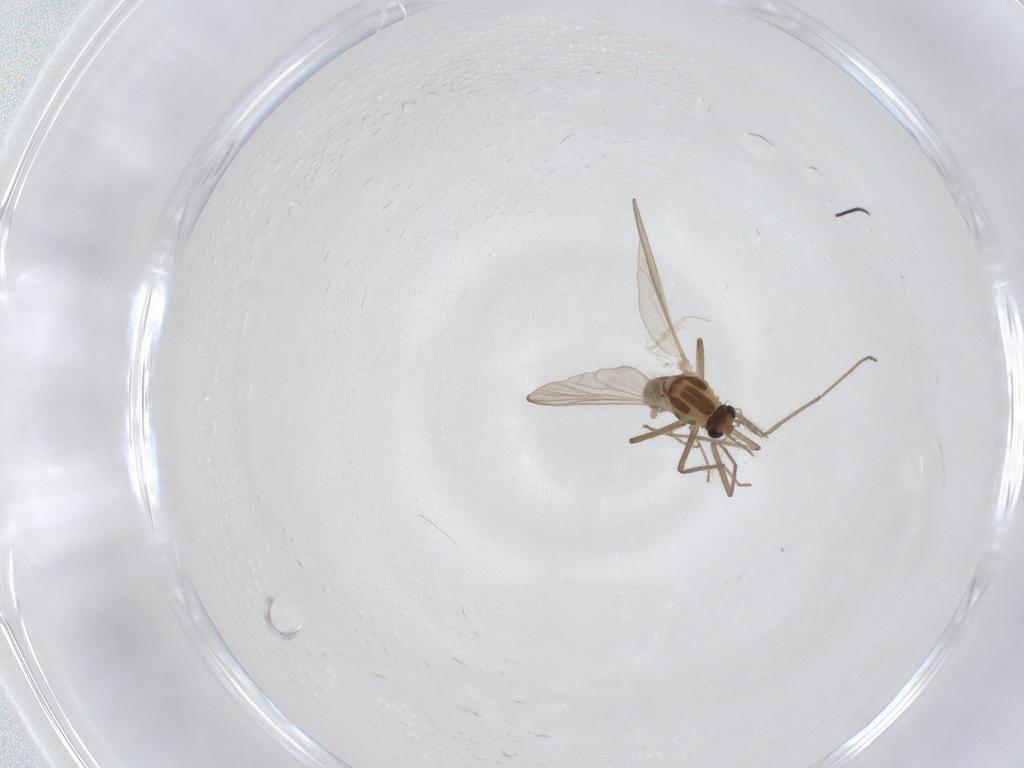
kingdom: Animalia
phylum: Arthropoda
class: Insecta
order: Diptera
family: Chironomidae
